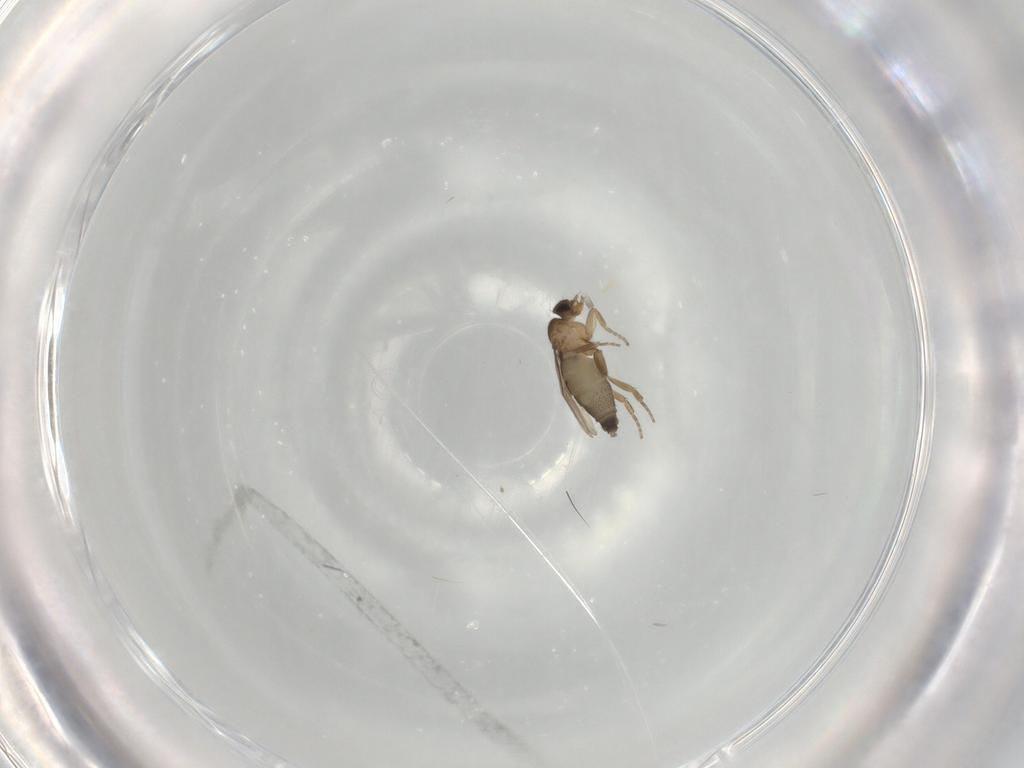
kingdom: Animalia
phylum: Arthropoda
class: Insecta
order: Diptera
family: Phoridae
